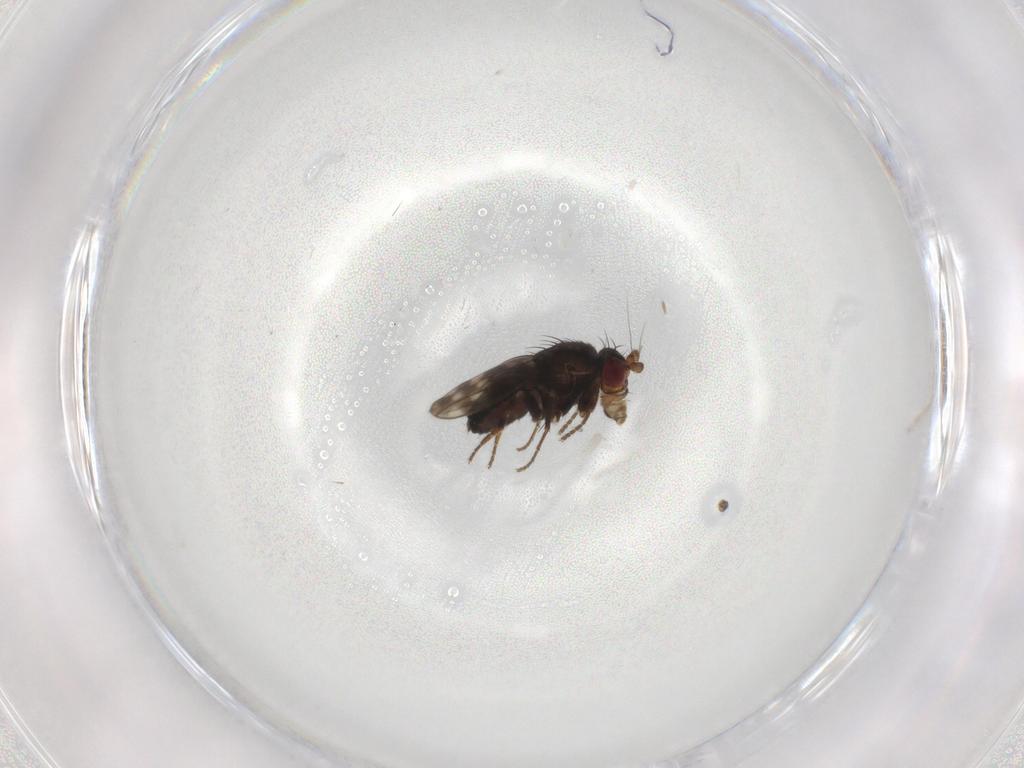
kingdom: Animalia
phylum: Arthropoda
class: Insecta
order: Diptera
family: Sphaeroceridae
